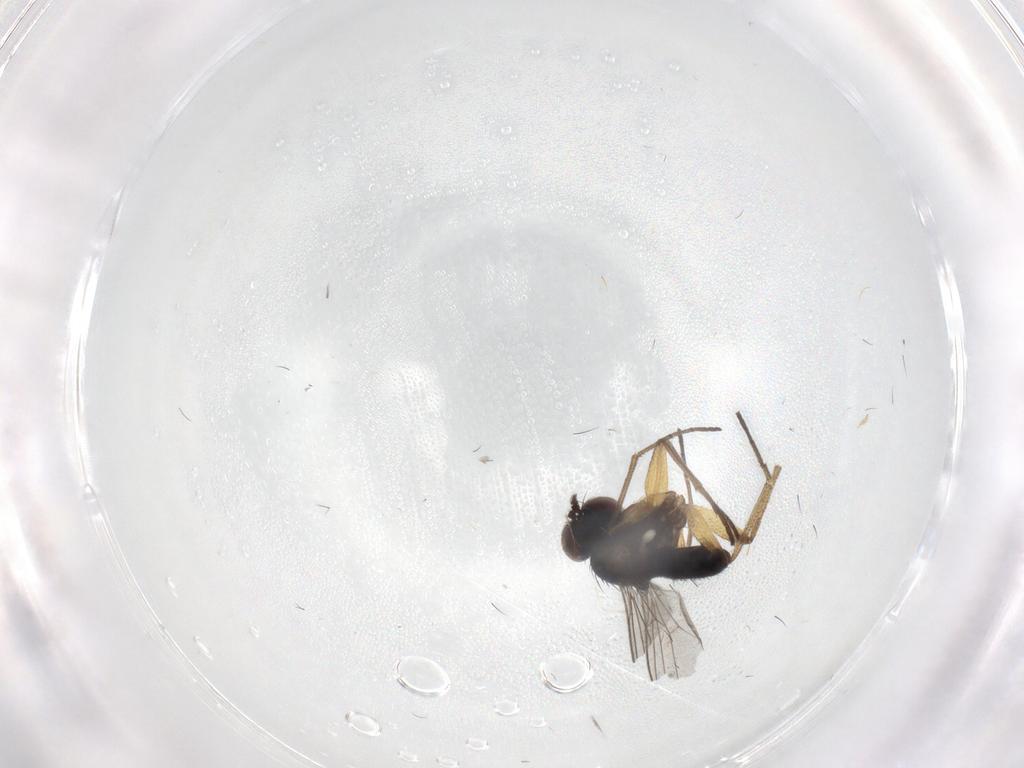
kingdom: Animalia
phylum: Arthropoda
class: Insecta
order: Diptera
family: Dolichopodidae
